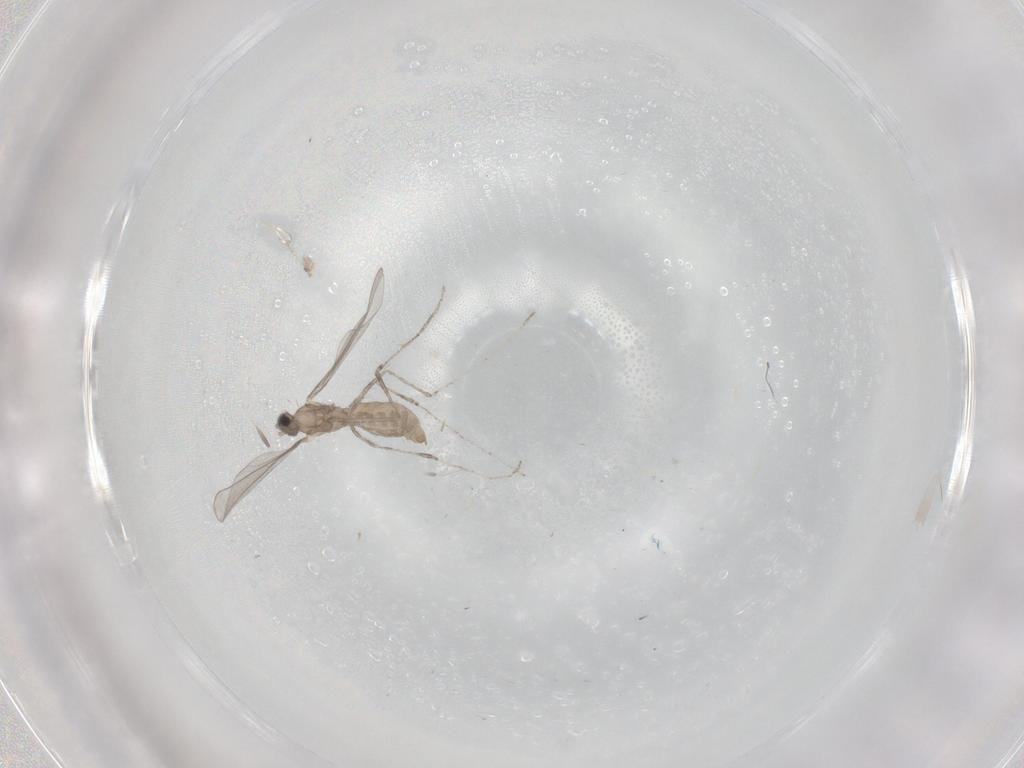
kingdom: Animalia
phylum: Arthropoda
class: Insecta
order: Diptera
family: Cecidomyiidae
